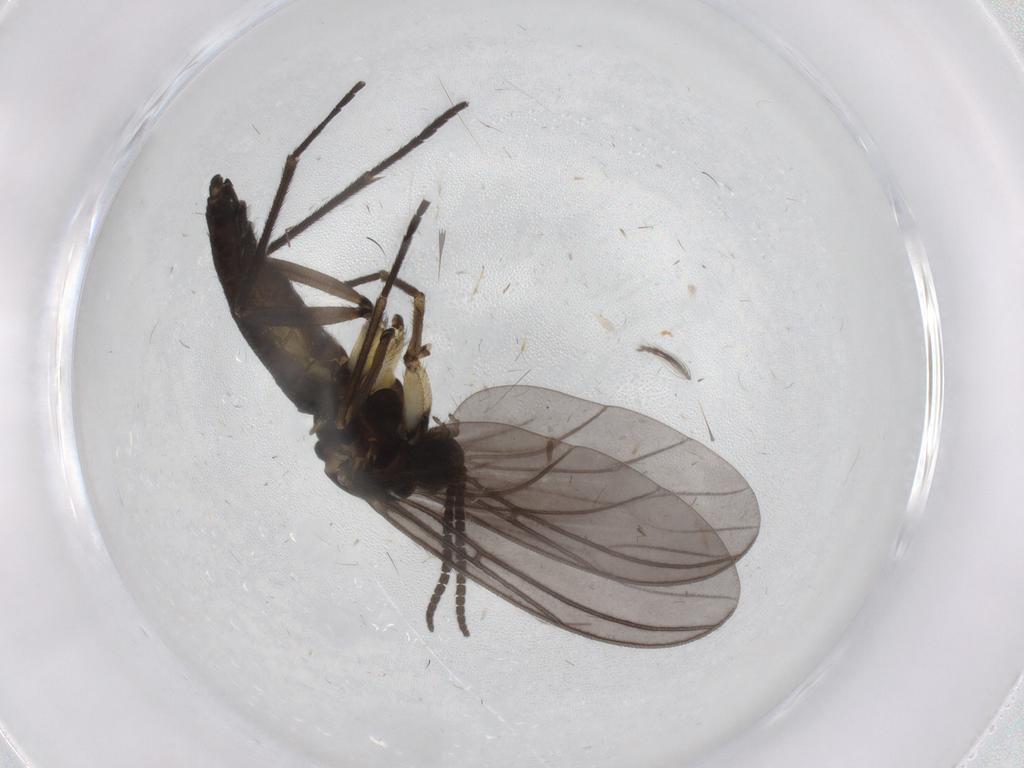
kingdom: Animalia
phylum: Arthropoda
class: Insecta
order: Diptera
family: Sciaridae
